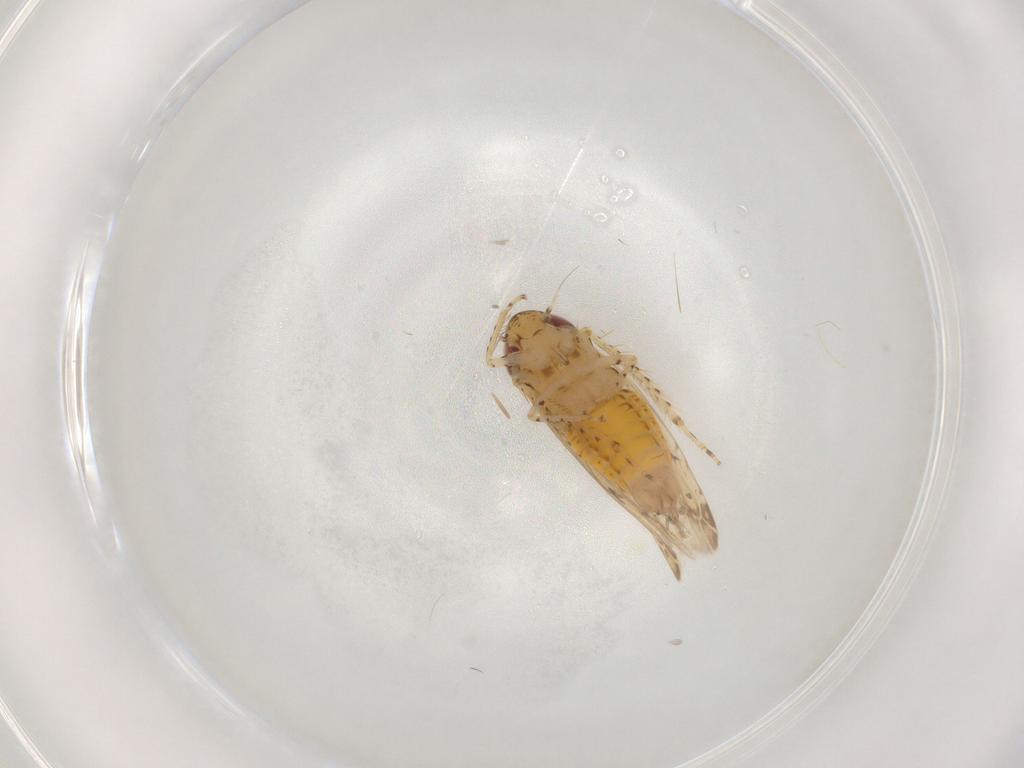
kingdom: Animalia
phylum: Arthropoda
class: Insecta
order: Hemiptera
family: Cicadellidae
